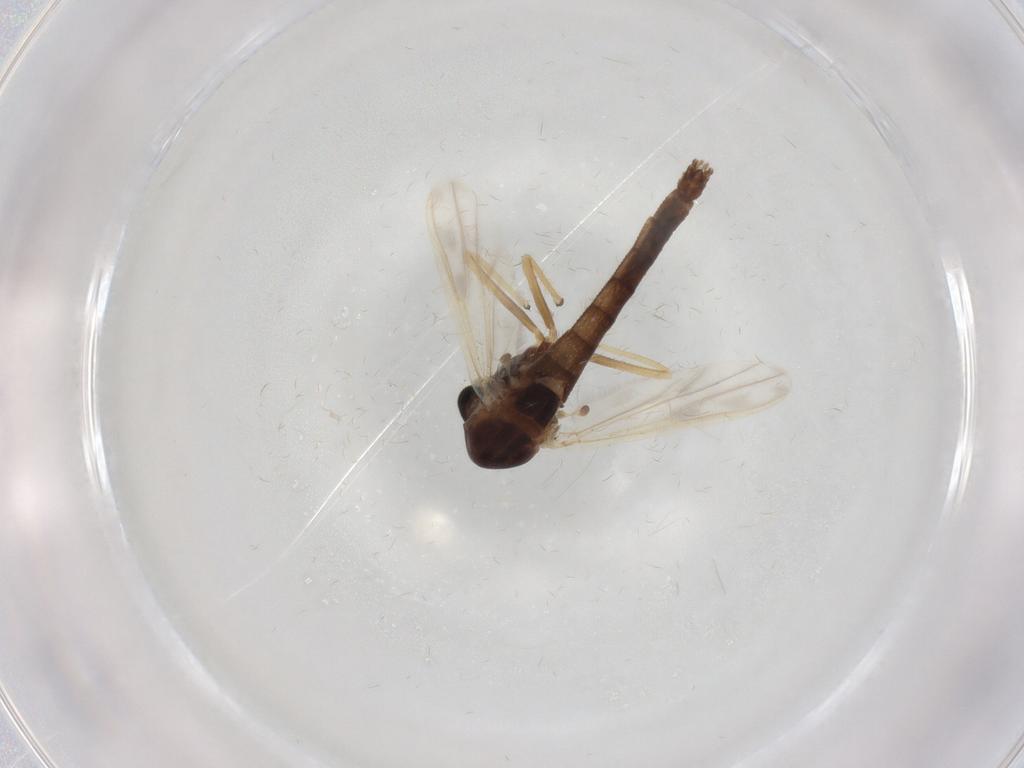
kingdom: Animalia
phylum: Arthropoda
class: Insecta
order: Diptera
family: Chironomidae
